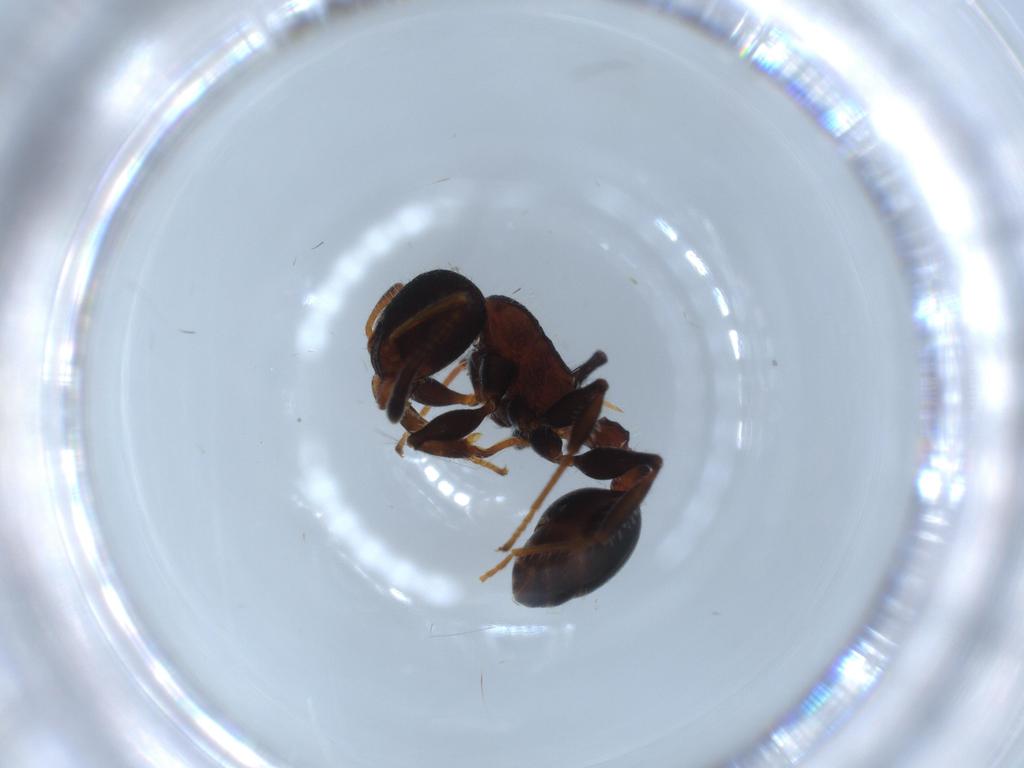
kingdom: Animalia
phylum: Arthropoda
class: Insecta
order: Hymenoptera
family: Formicidae
